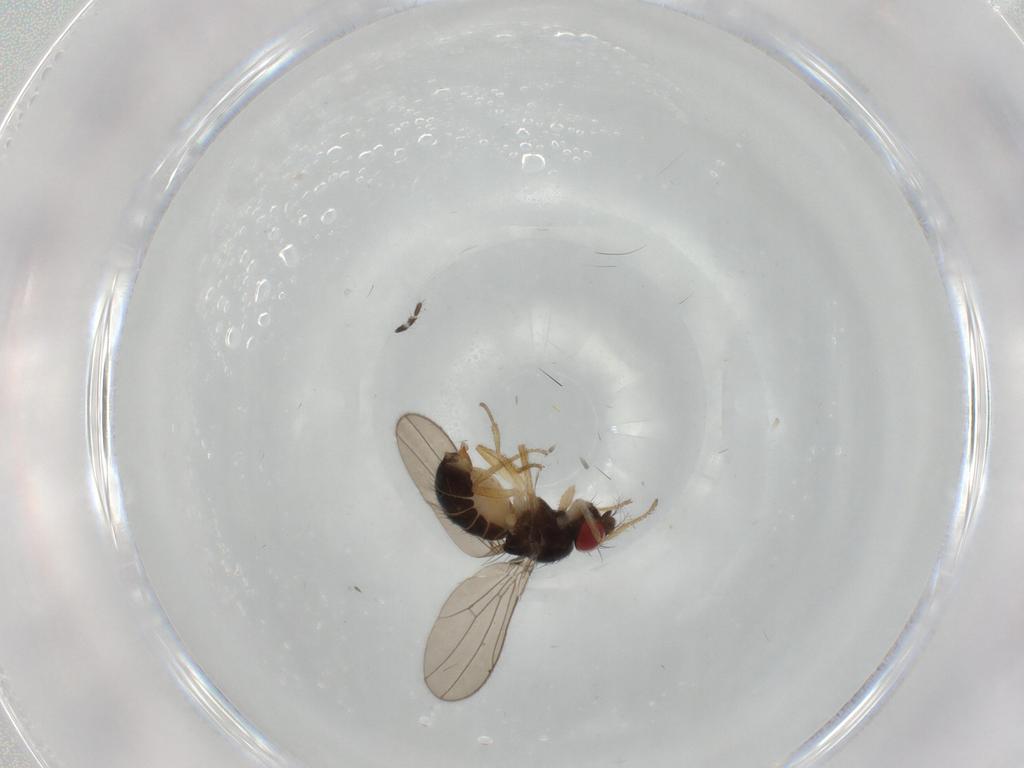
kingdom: Animalia
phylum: Arthropoda
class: Insecta
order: Diptera
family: Drosophilidae
